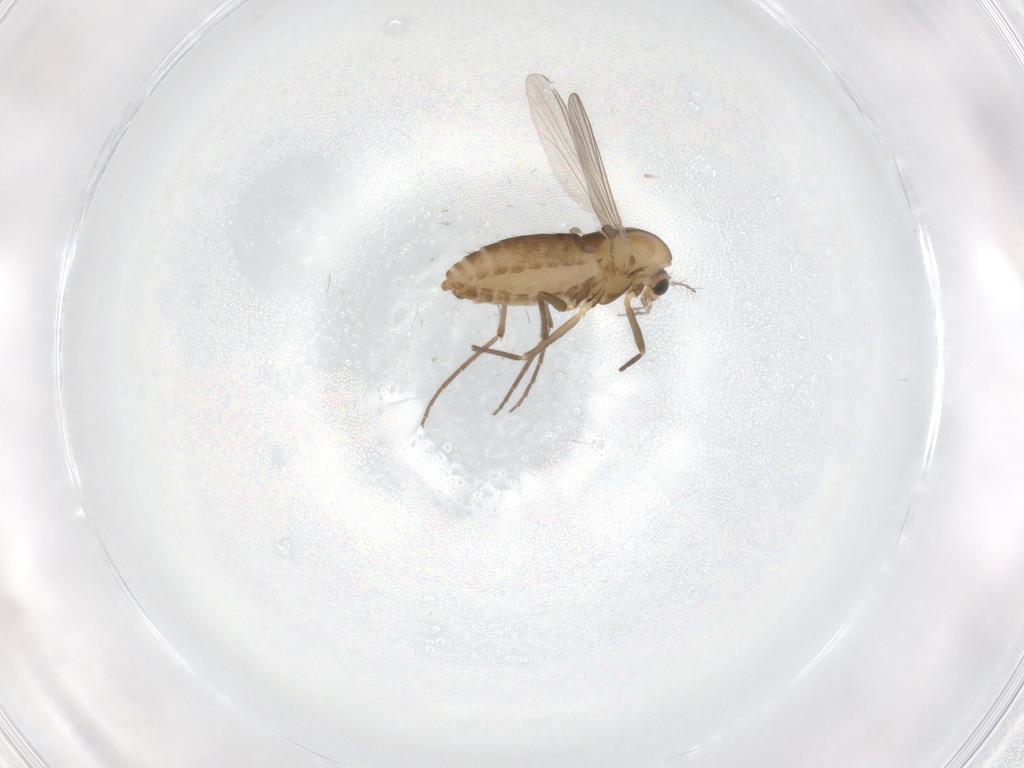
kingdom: Animalia
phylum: Arthropoda
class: Insecta
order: Diptera
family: Chironomidae
